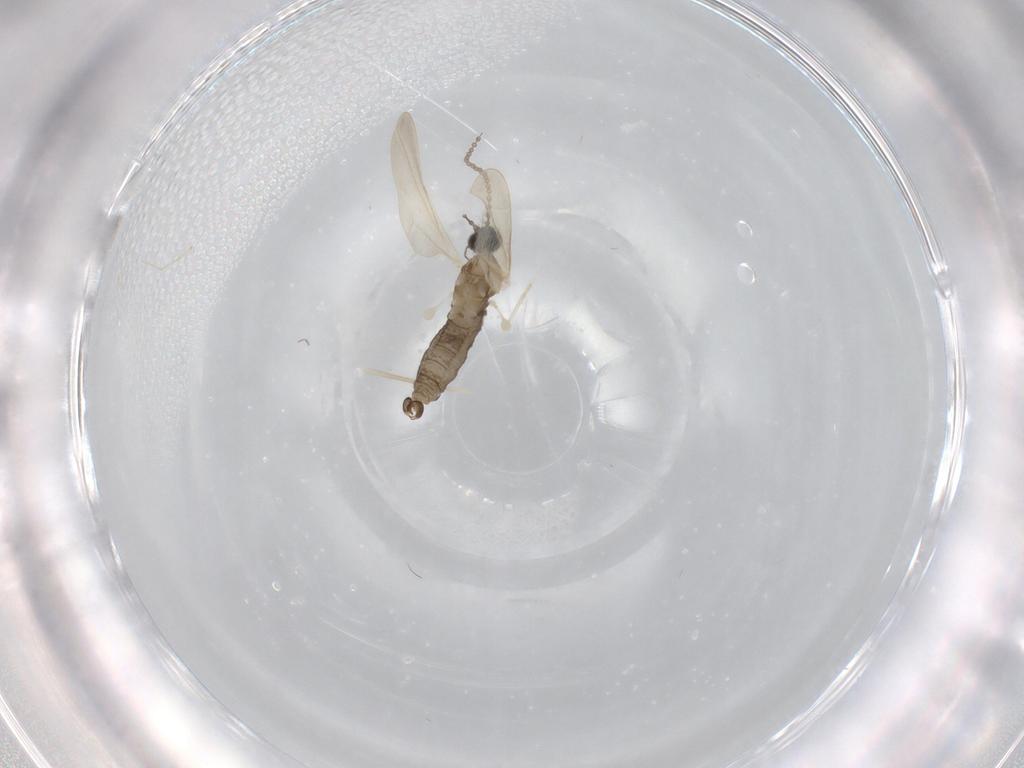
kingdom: Animalia
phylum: Arthropoda
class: Insecta
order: Diptera
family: Cecidomyiidae
